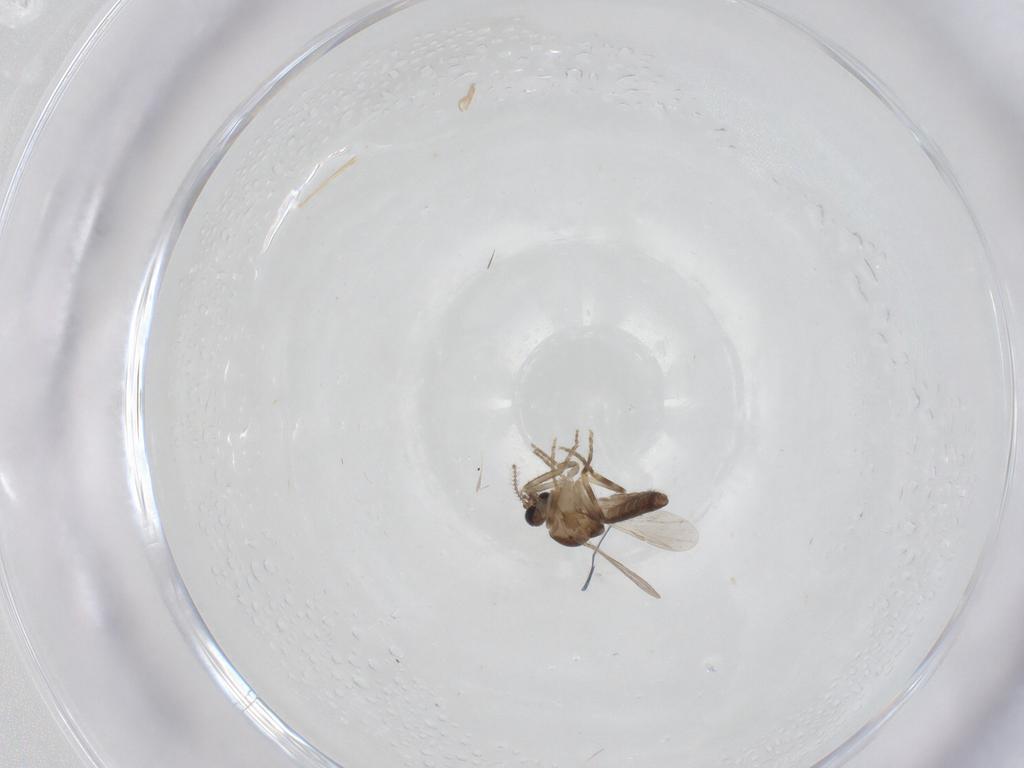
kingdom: Animalia
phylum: Arthropoda
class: Insecta
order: Diptera
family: Ceratopogonidae
